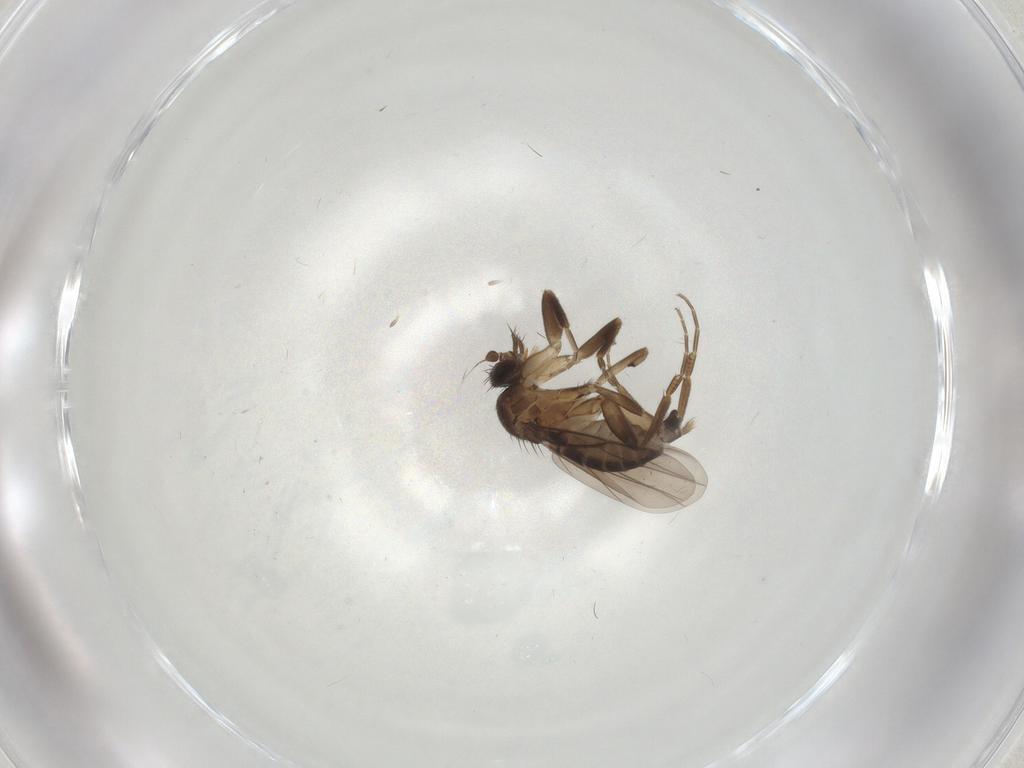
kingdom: Animalia
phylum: Arthropoda
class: Insecta
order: Diptera
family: Phoridae
